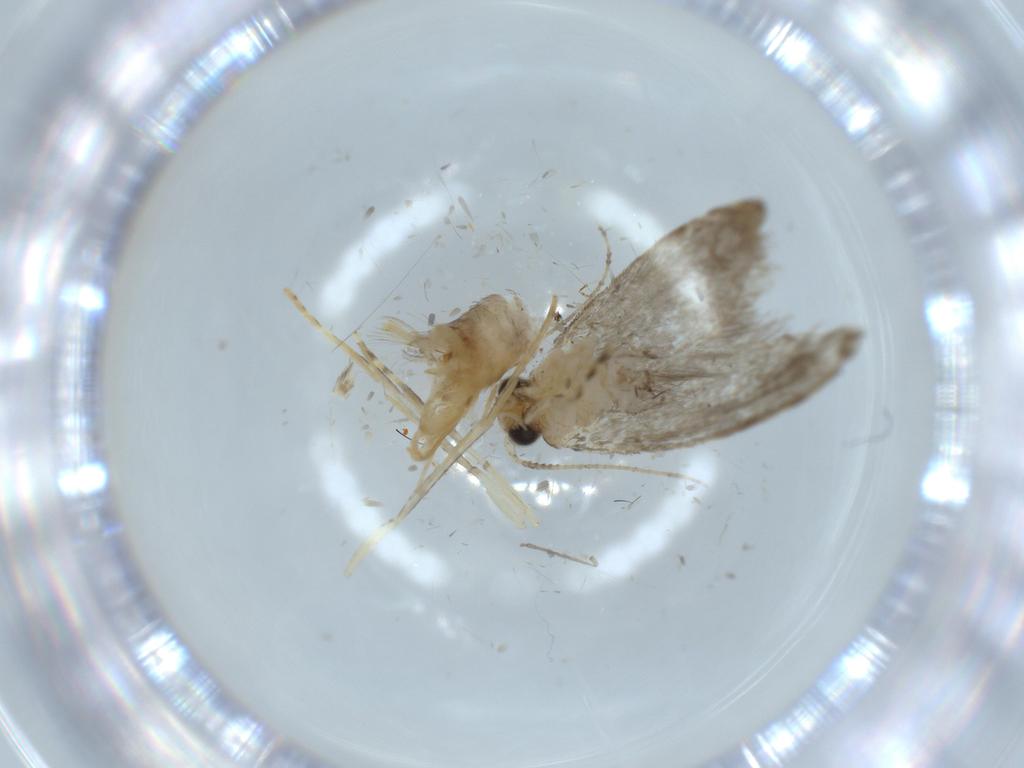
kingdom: Animalia
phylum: Arthropoda
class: Insecta
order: Lepidoptera
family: Tineidae
